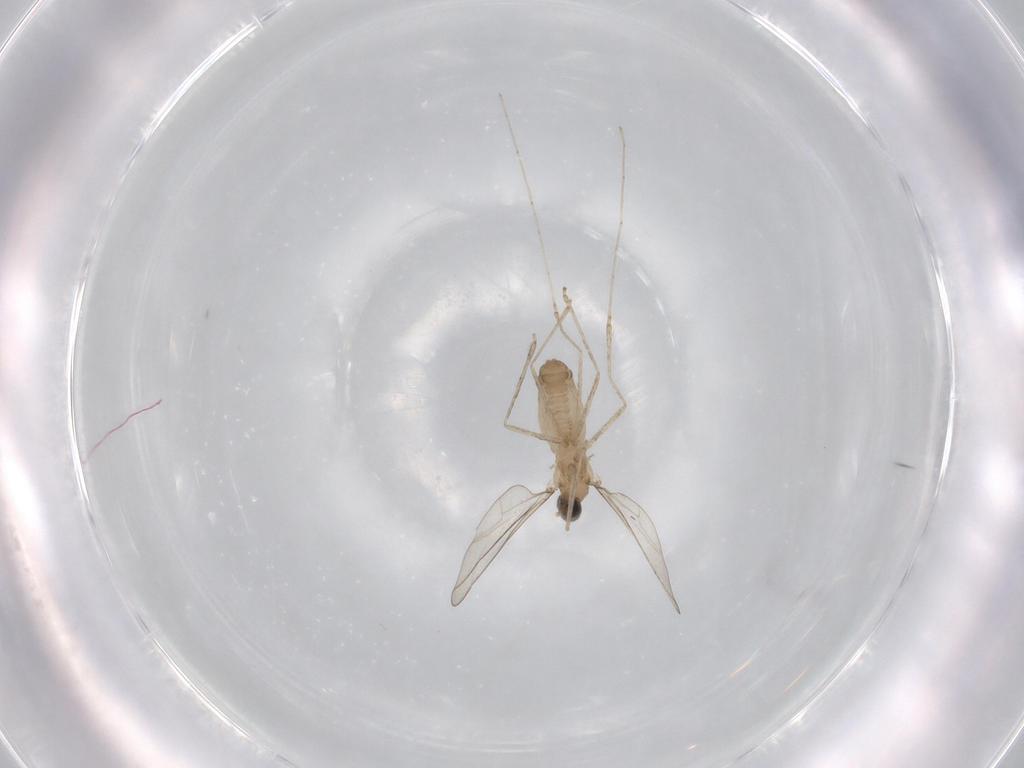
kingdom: Animalia
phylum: Arthropoda
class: Insecta
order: Diptera
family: Cecidomyiidae
